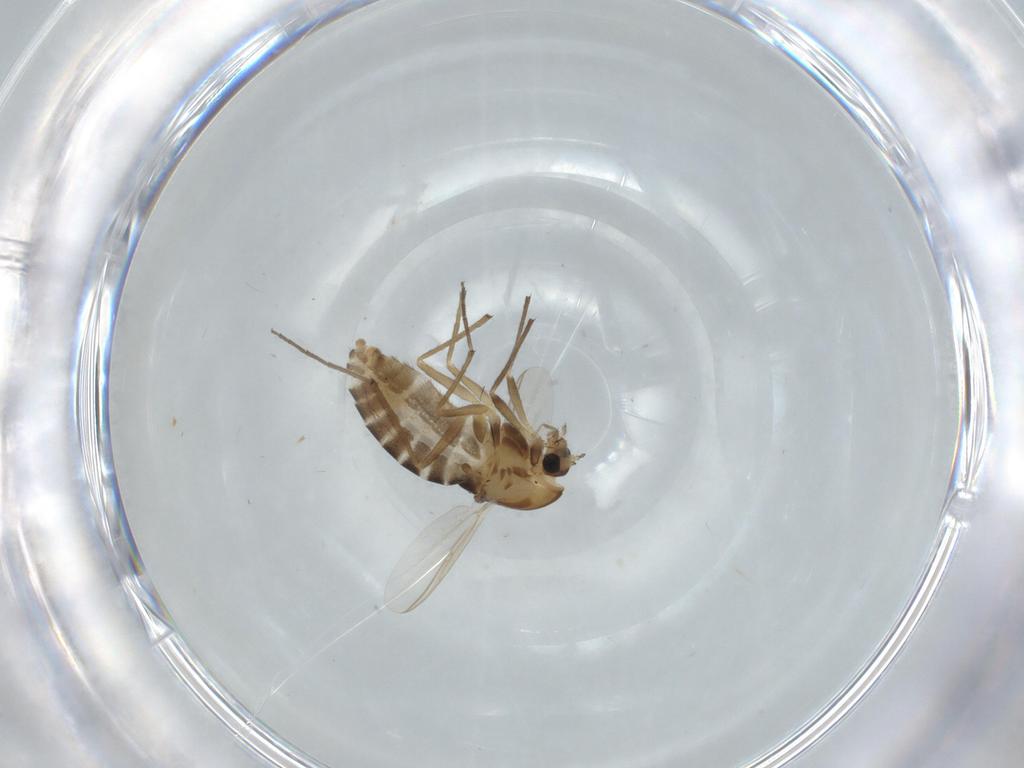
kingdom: Animalia
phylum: Arthropoda
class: Insecta
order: Diptera
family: Chironomidae
